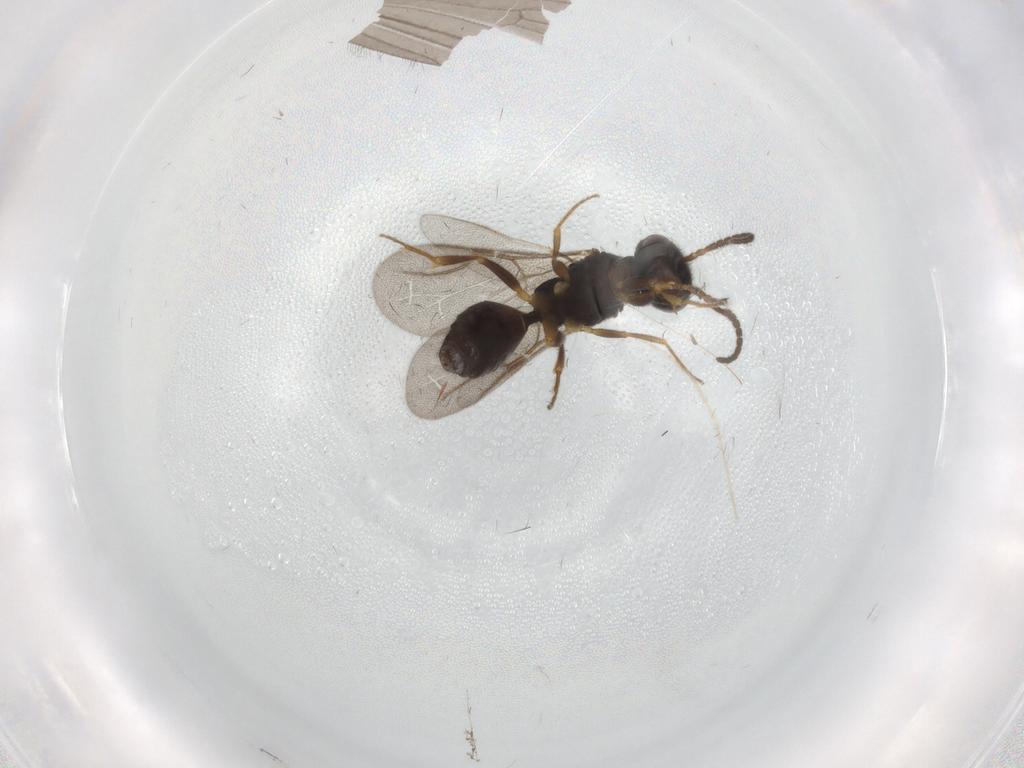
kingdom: Animalia
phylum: Arthropoda
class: Insecta
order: Hymenoptera
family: Bethylidae
